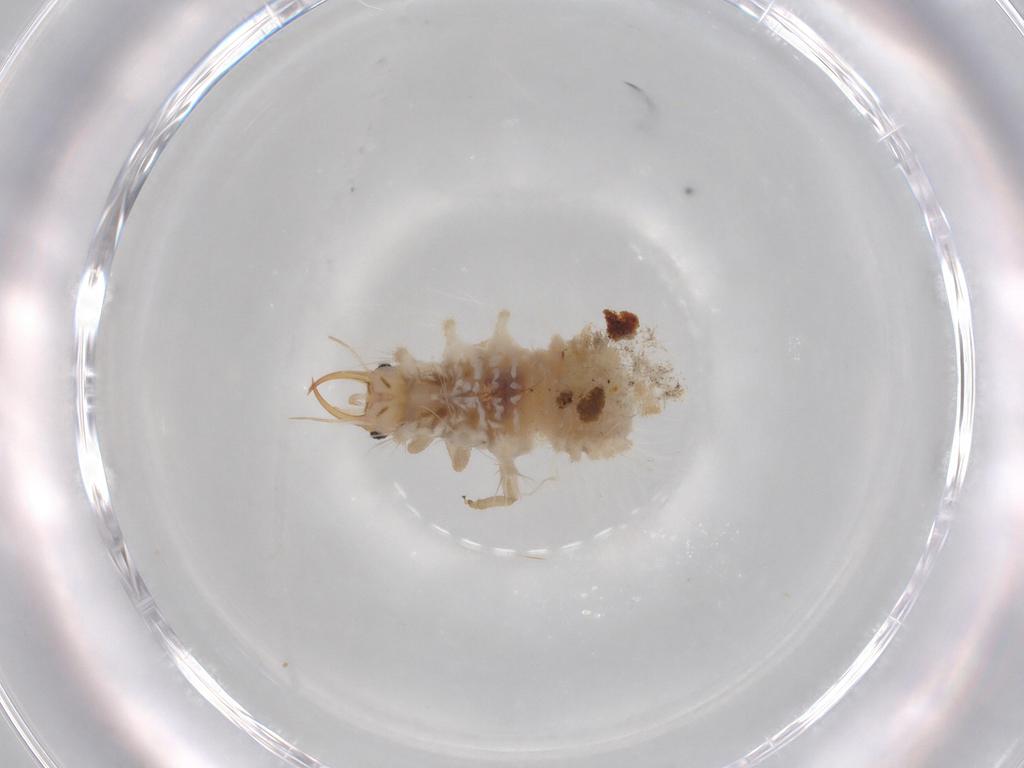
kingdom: Animalia
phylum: Arthropoda
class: Insecta
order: Neuroptera
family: Chrysopidae
